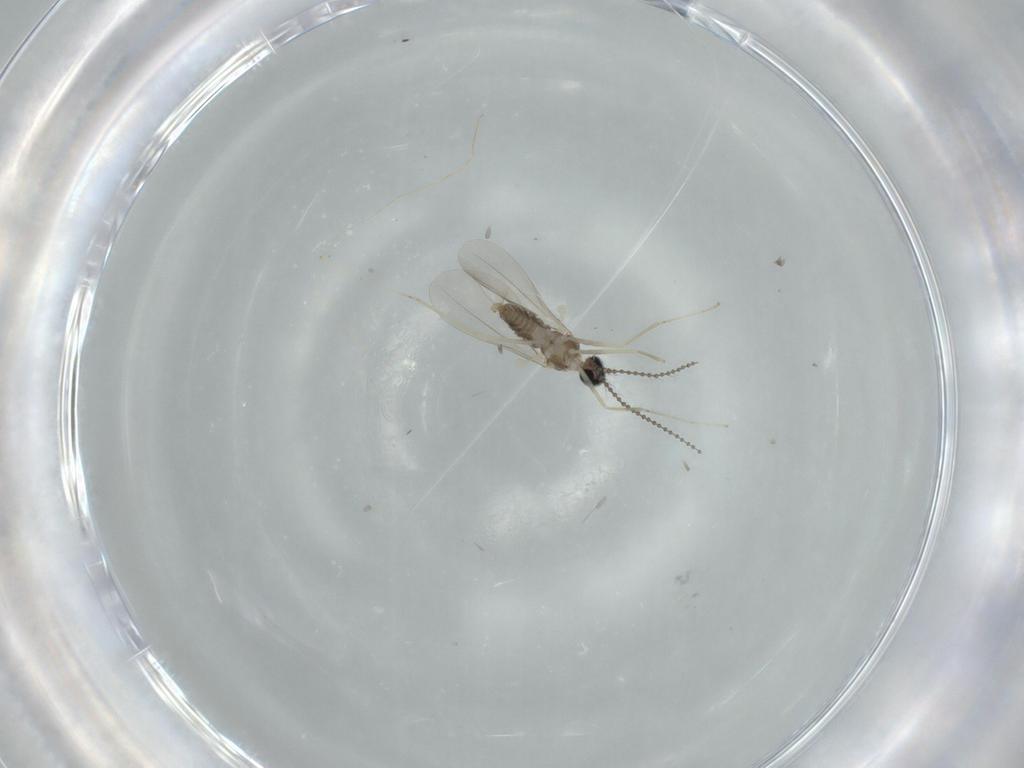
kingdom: Animalia
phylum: Arthropoda
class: Insecta
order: Diptera
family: Cecidomyiidae
